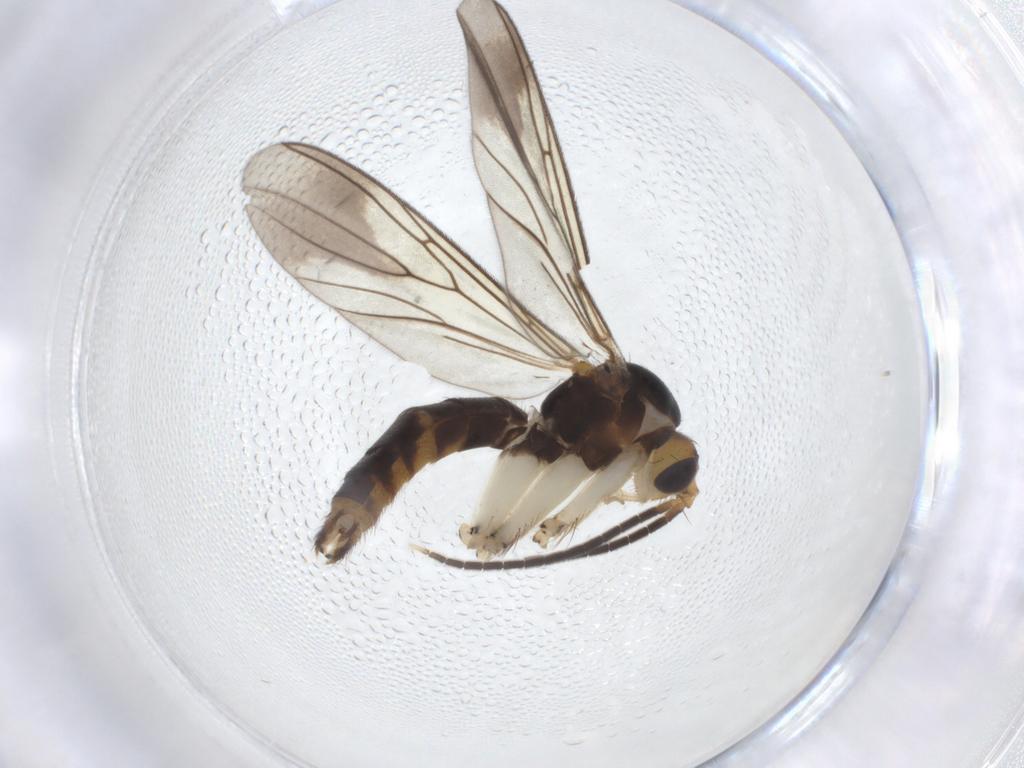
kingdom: Animalia
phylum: Arthropoda
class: Insecta
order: Diptera
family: Mycetophilidae
